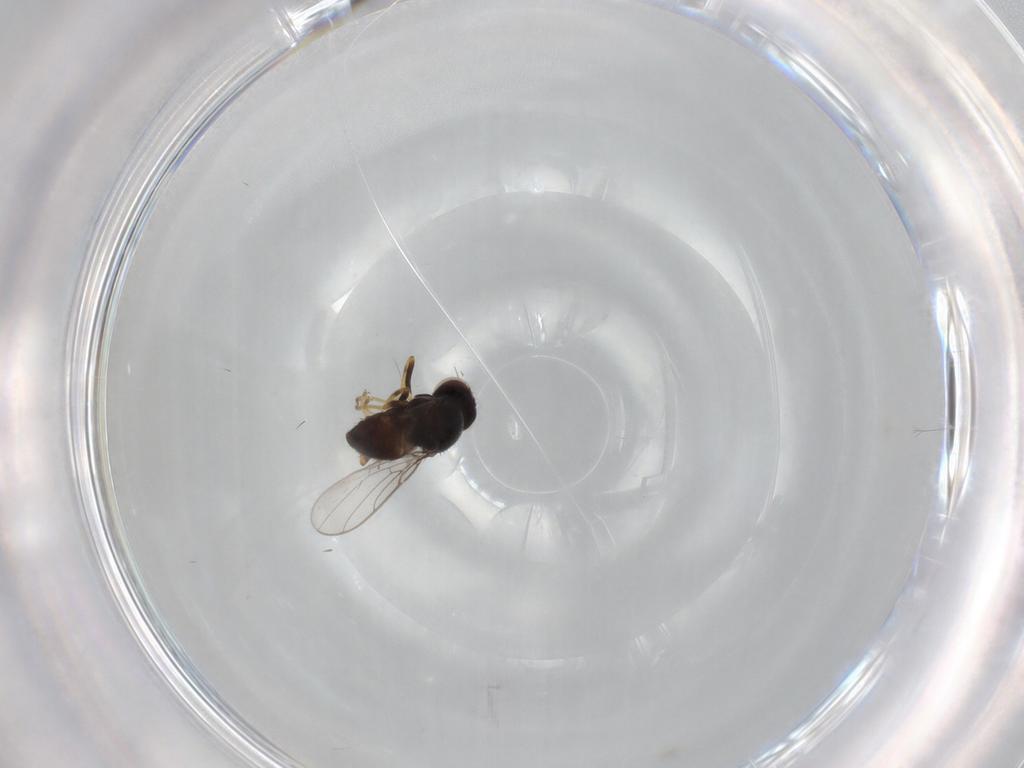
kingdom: Animalia
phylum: Arthropoda
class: Insecta
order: Diptera
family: Chloropidae
